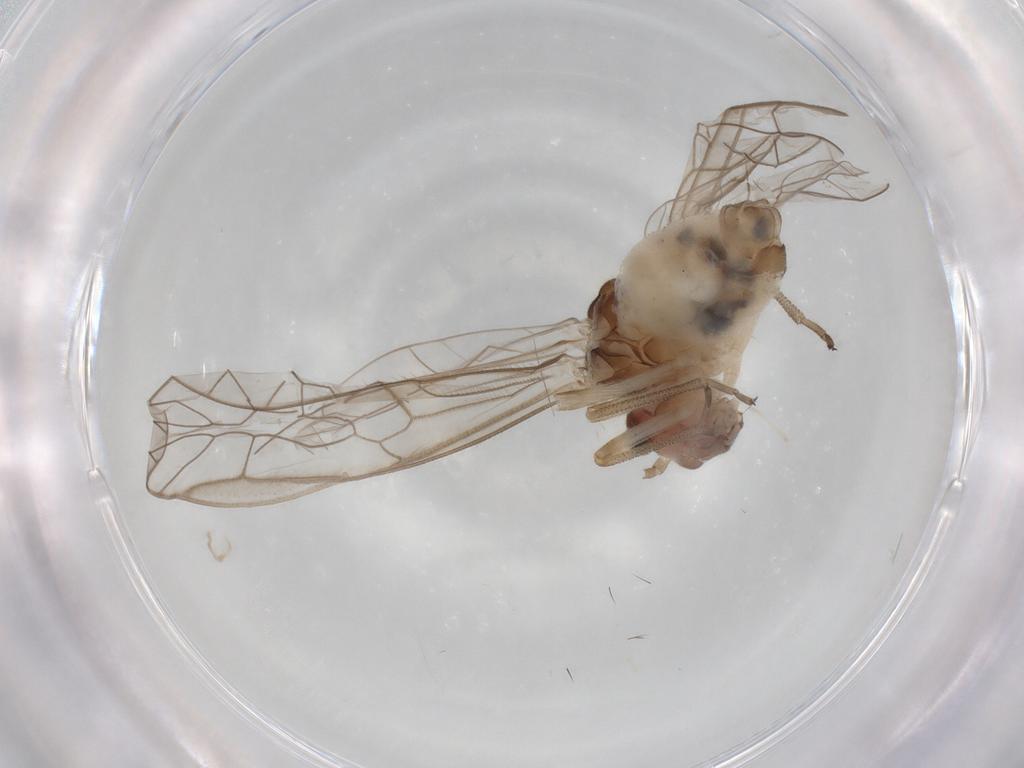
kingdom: Animalia
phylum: Arthropoda
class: Insecta
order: Psocodea
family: Stenopsocidae
